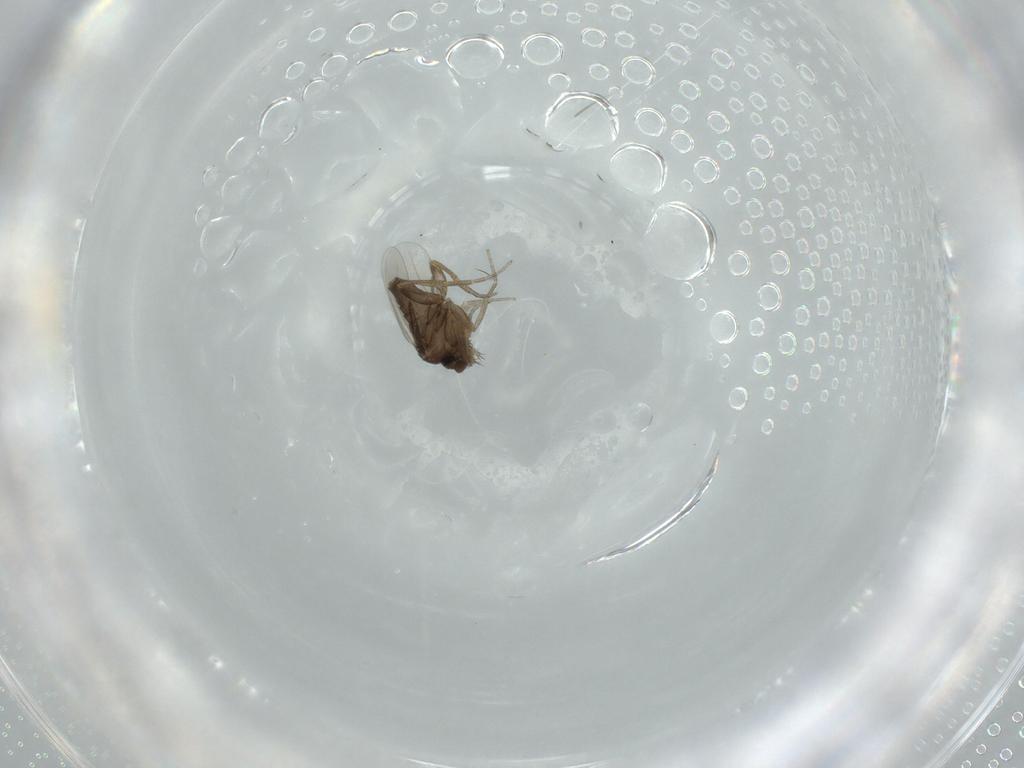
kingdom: Animalia
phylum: Arthropoda
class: Insecta
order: Diptera
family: Phoridae
